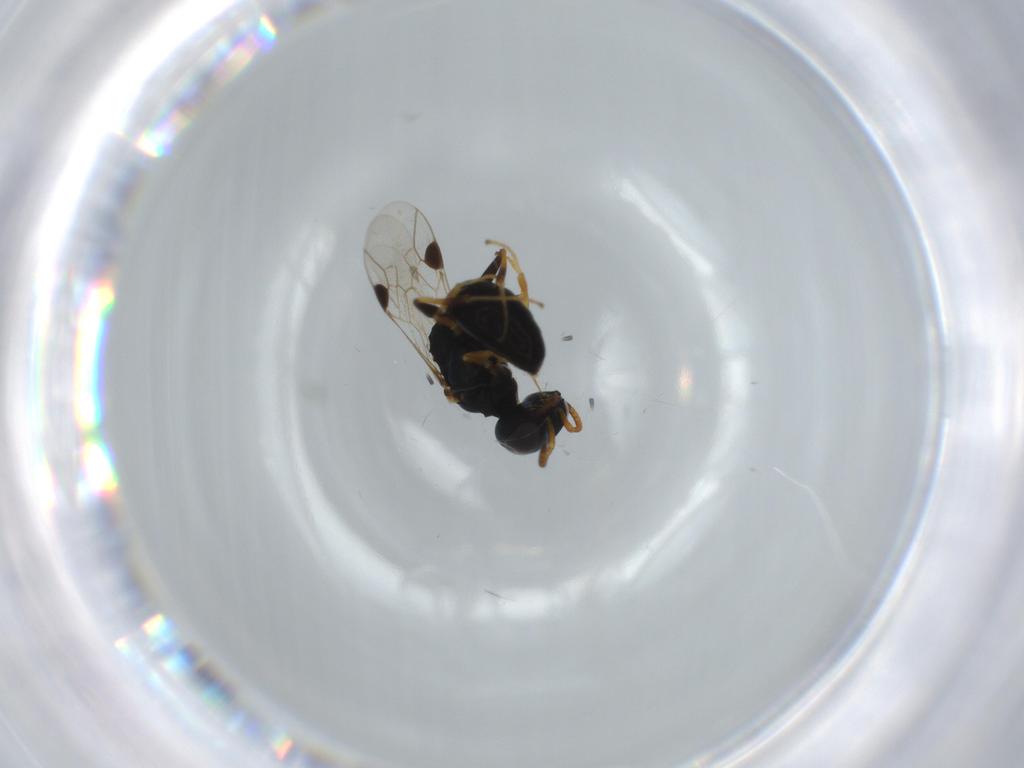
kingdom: Animalia
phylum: Arthropoda
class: Insecta
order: Hymenoptera
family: Pemphredonidae
